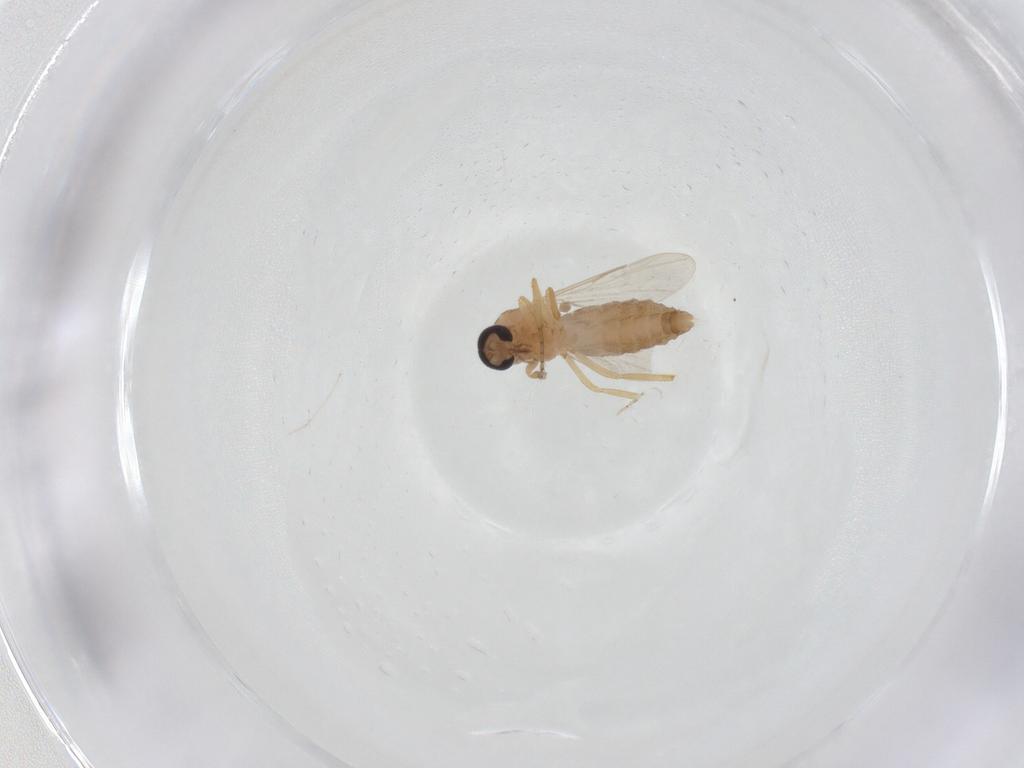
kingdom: Animalia
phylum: Arthropoda
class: Insecta
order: Diptera
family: Ceratopogonidae
